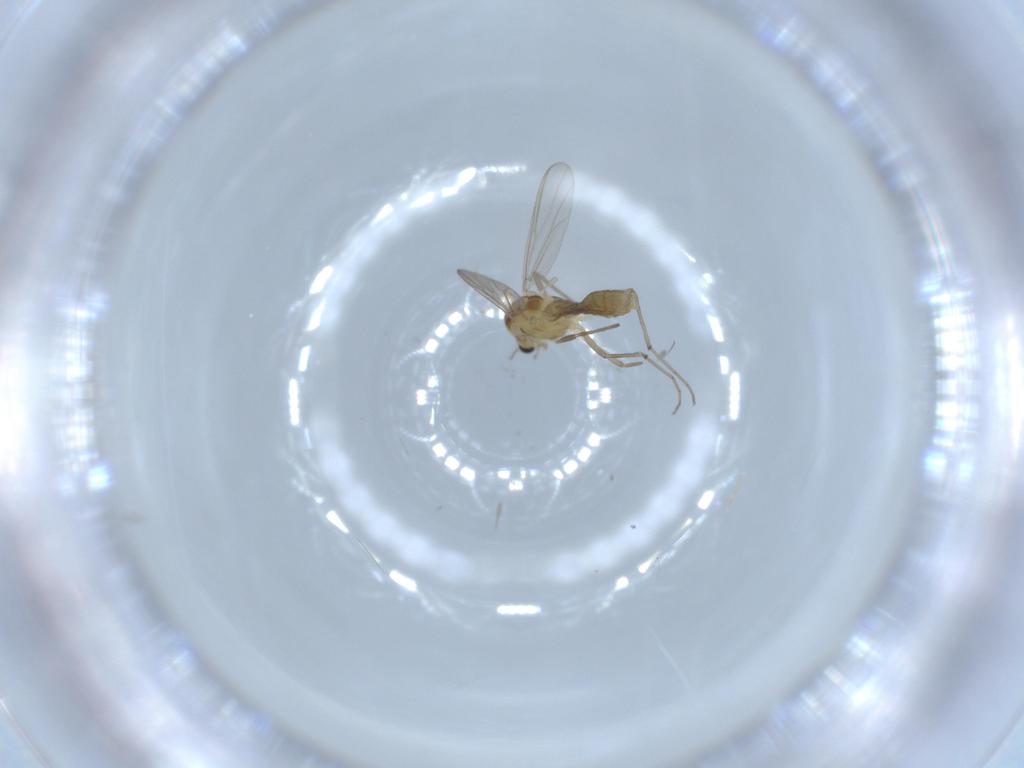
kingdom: Animalia
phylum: Arthropoda
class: Insecta
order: Diptera
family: Chironomidae
